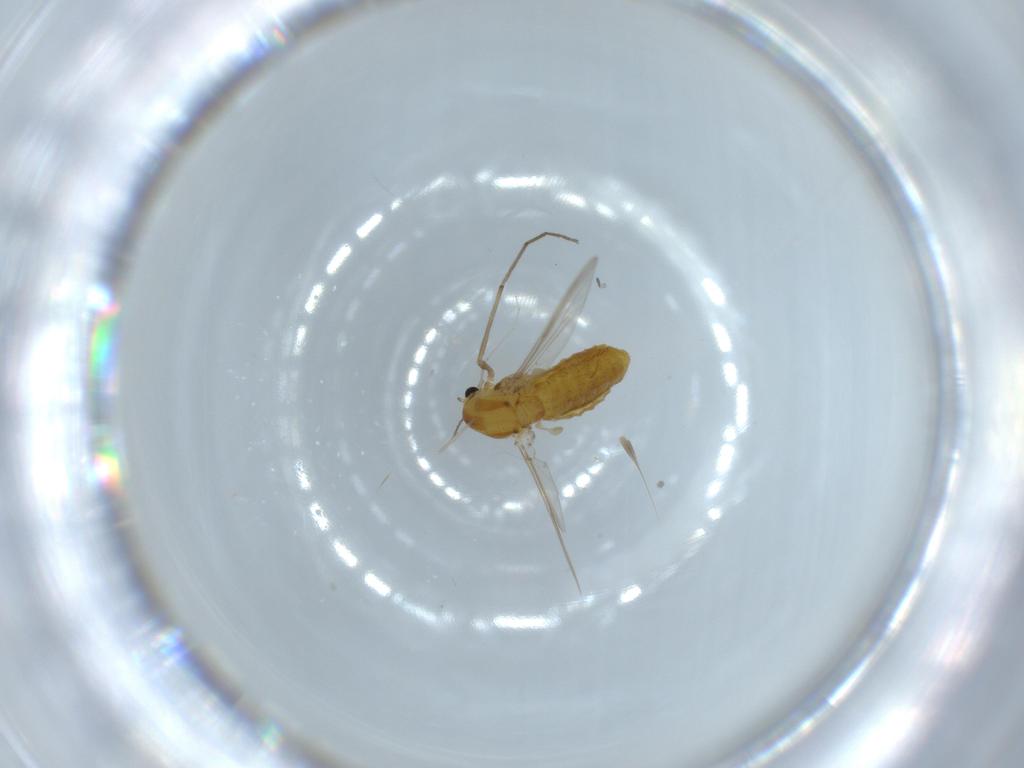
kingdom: Animalia
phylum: Arthropoda
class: Insecta
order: Diptera
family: Chironomidae
